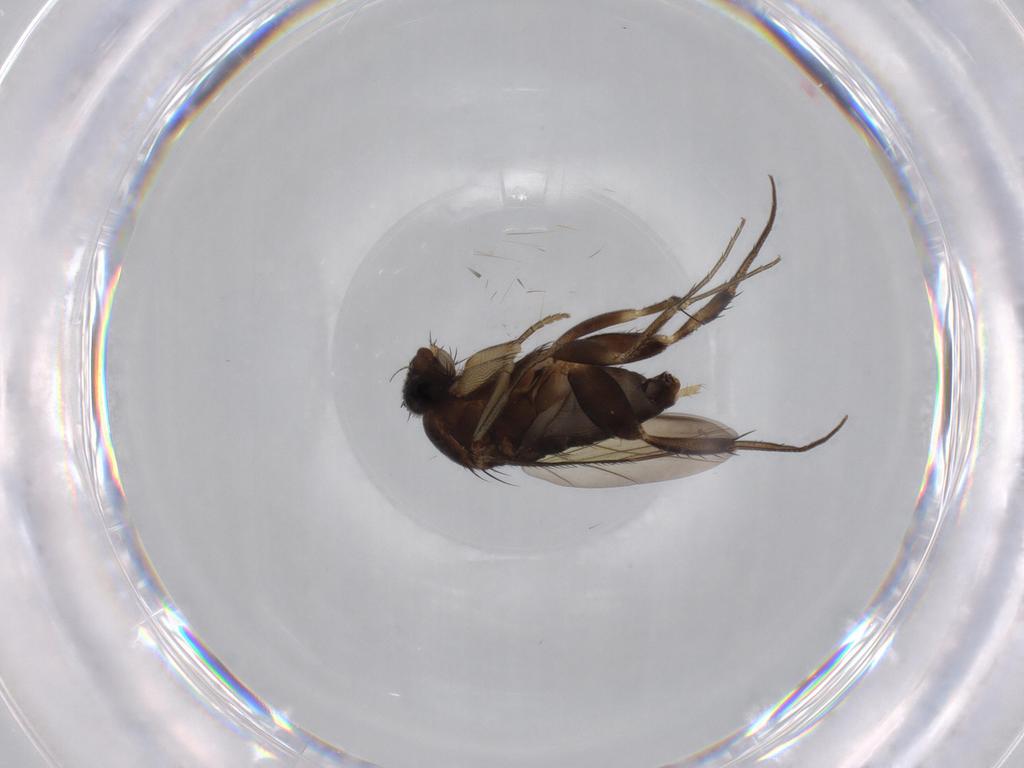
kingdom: Animalia
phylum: Arthropoda
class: Insecta
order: Diptera
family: Phoridae
